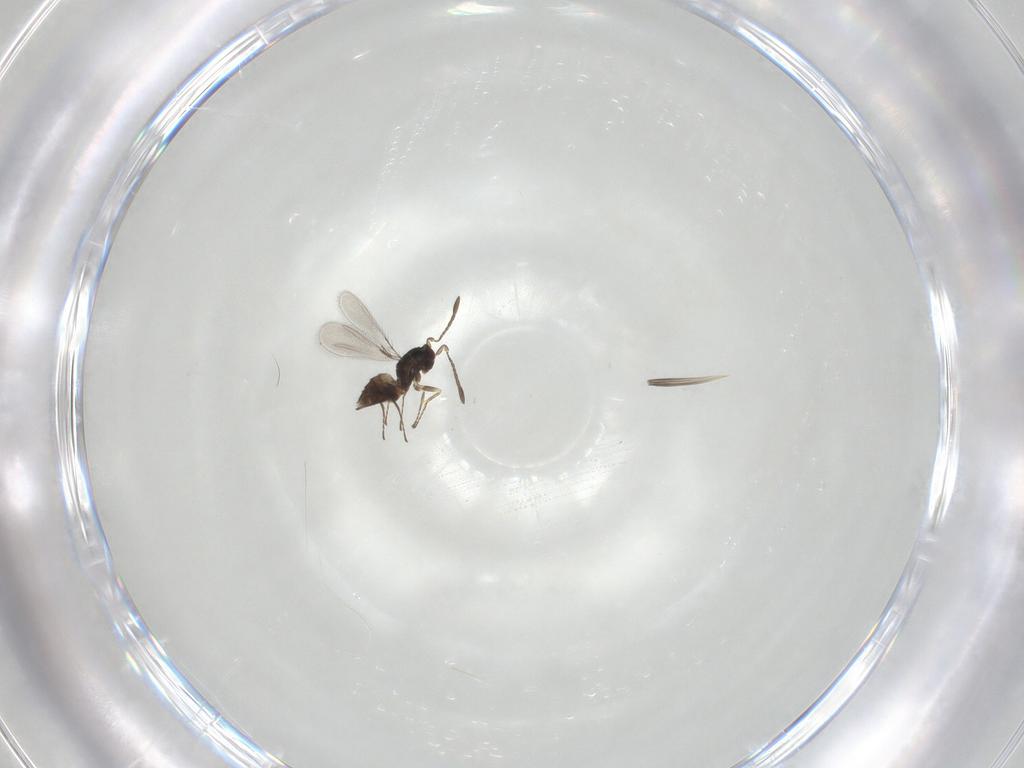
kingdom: Animalia
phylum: Arthropoda
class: Insecta
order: Hymenoptera
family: Mymaridae
